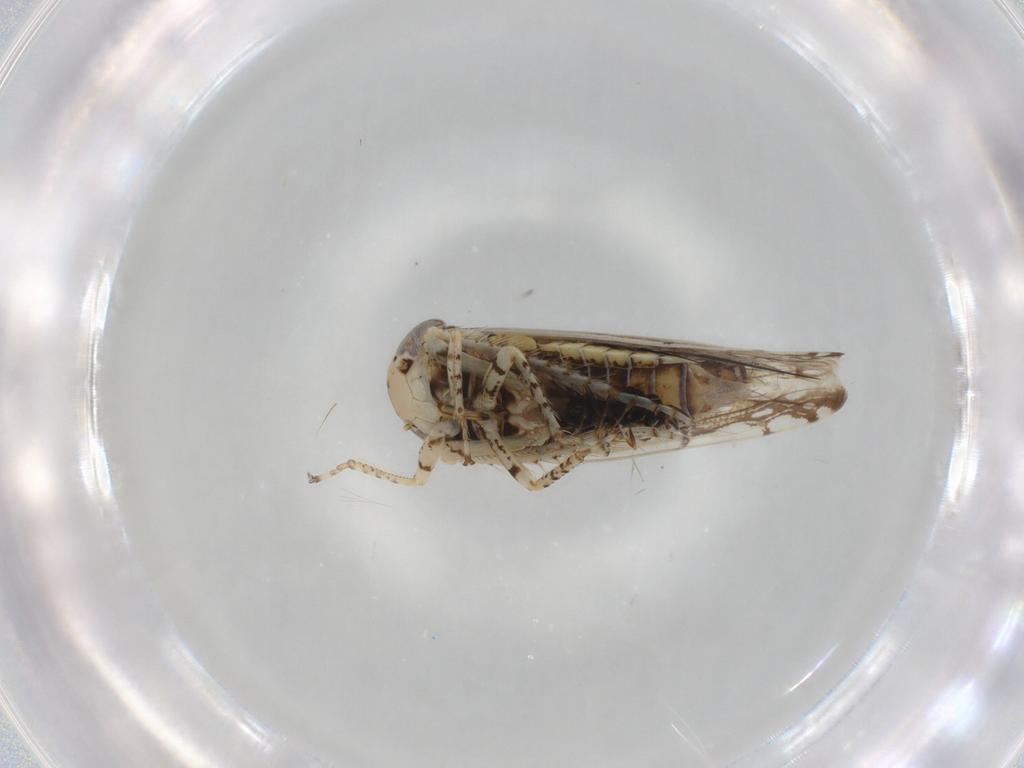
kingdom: Animalia
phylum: Arthropoda
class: Insecta
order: Hemiptera
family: Cicadellidae
